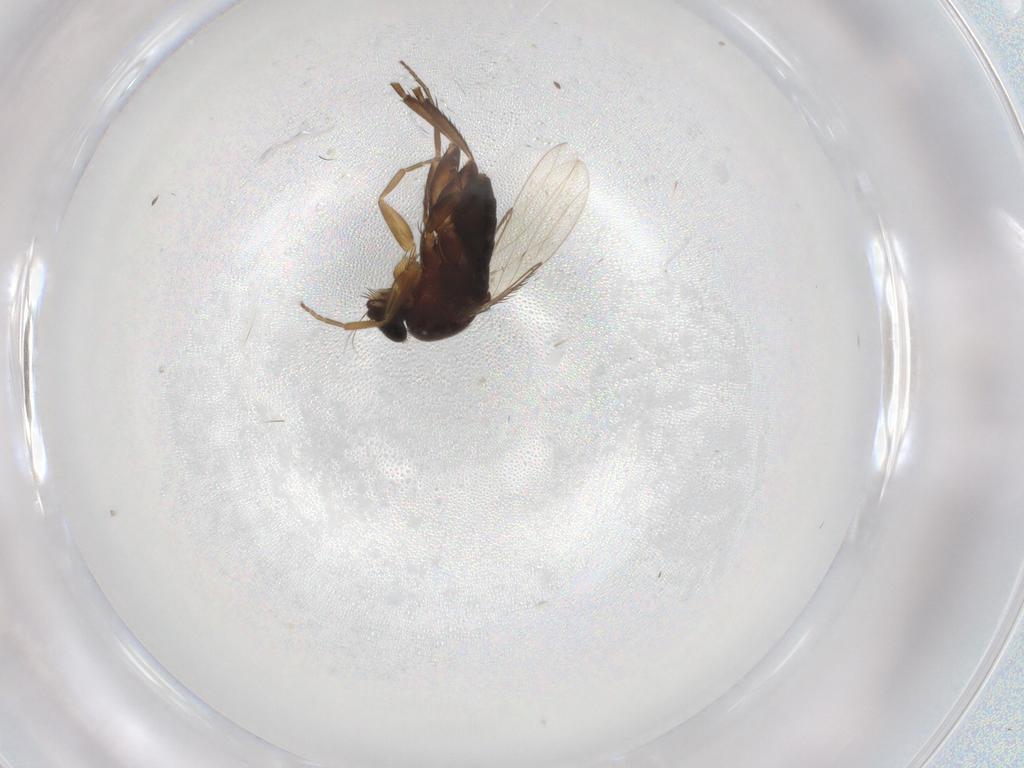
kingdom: Animalia
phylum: Arthropoda
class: Insecta
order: Diptera
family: Phoridae
